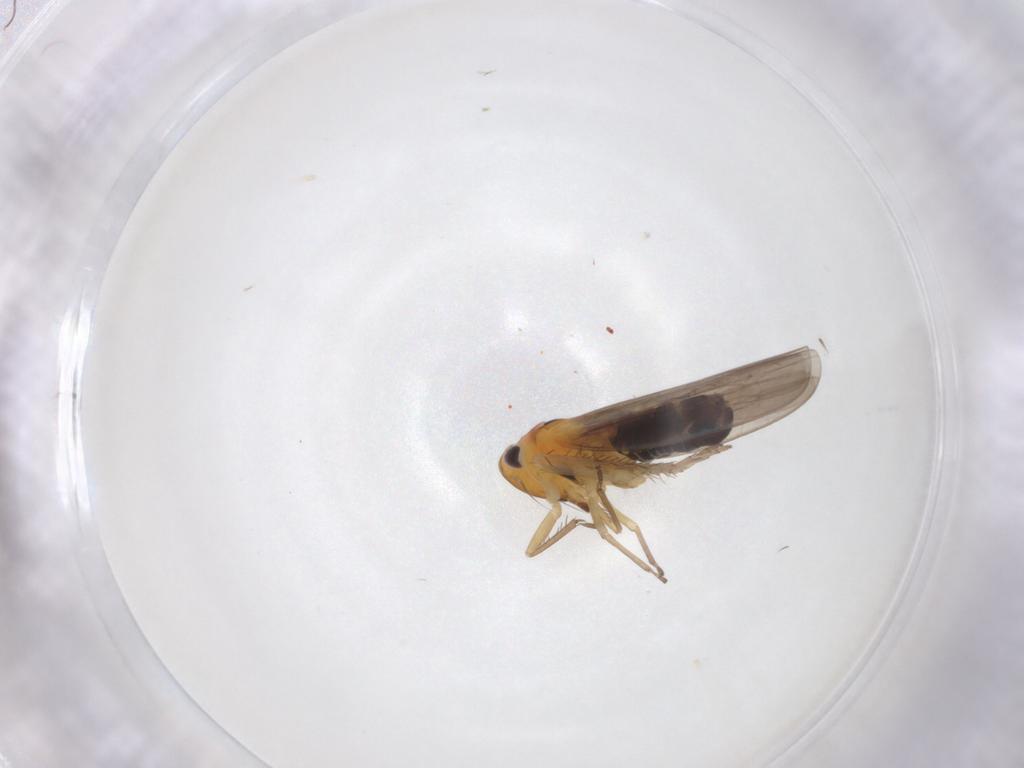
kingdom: Animalia
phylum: Arthropoda
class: Insecta
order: Hemiptera
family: Cicadellidae
